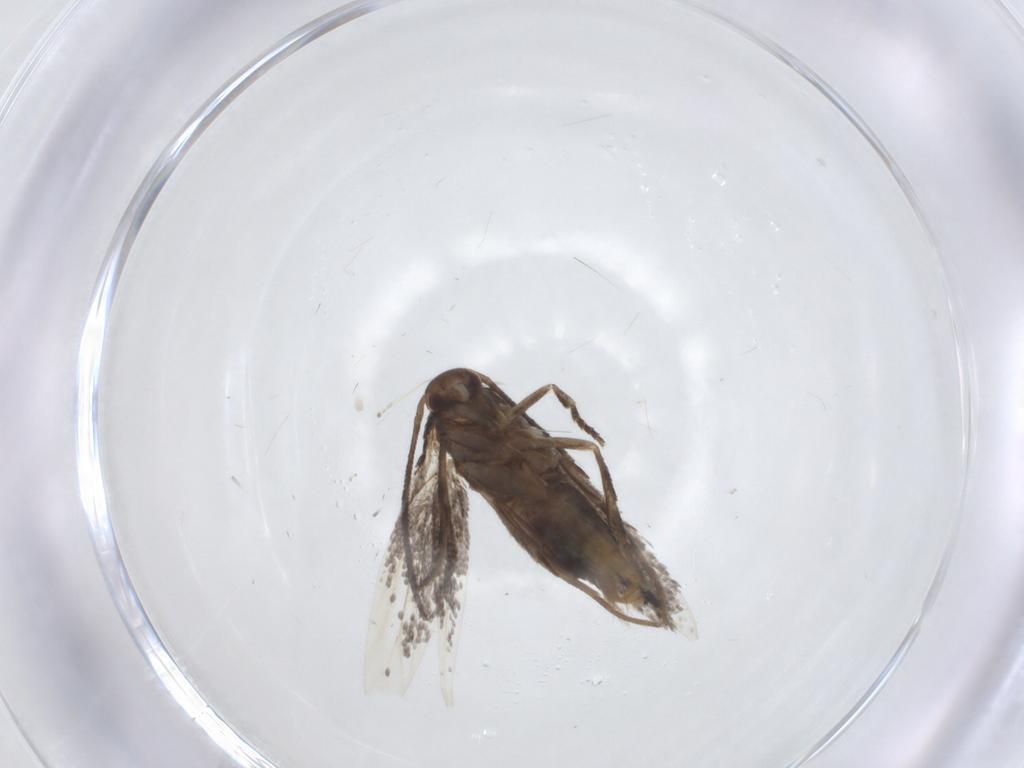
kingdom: Animalia
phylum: Arthropoda
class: Insecta
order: Lepidoptera
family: Elachistidae
